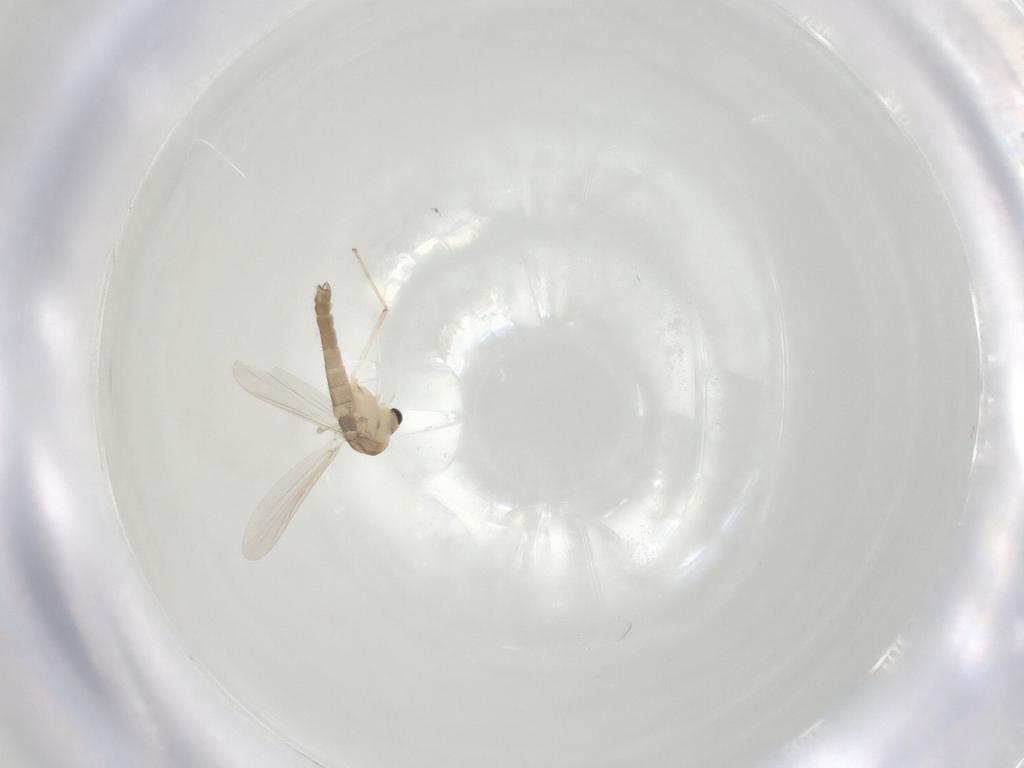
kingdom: Animalia
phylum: Arthropoda
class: Insecta
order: Diptera
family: Chironomidae
